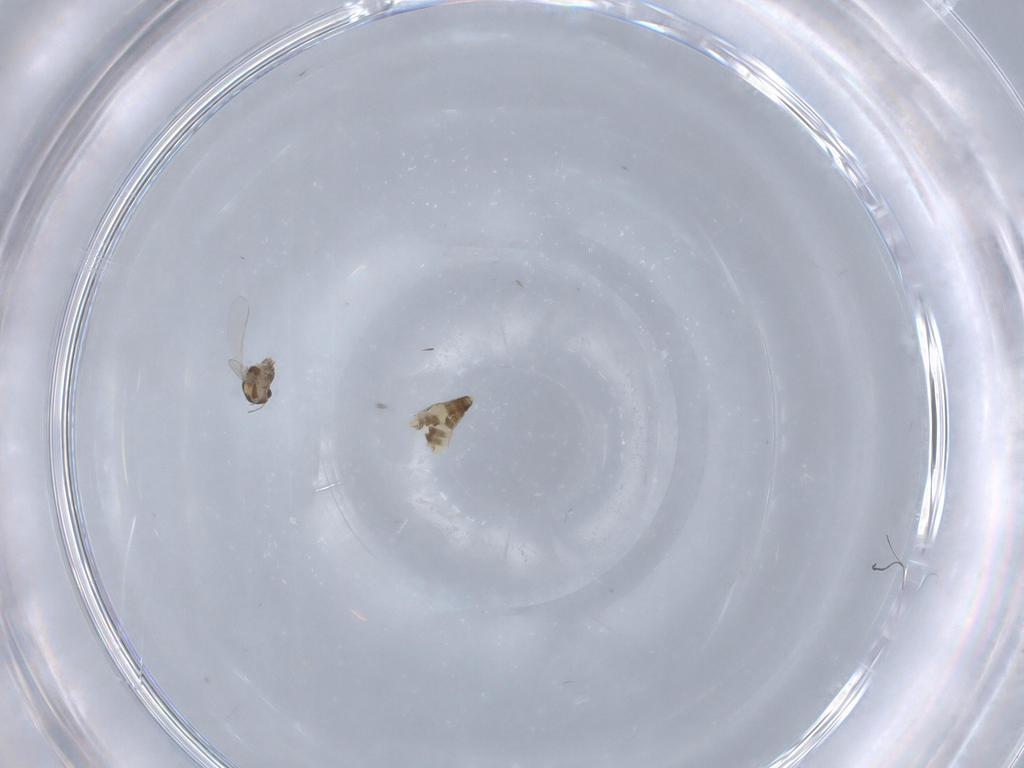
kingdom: Animalia
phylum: Arthropoda
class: Insecta
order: Diptera
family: Chironomidae
